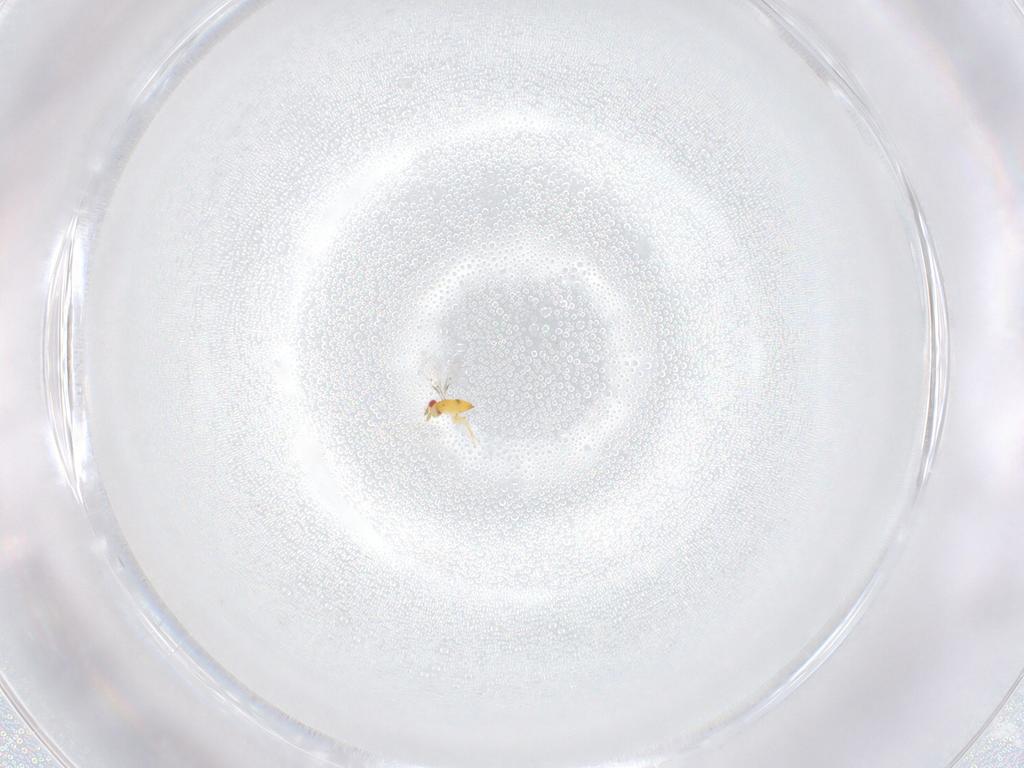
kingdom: Animalia
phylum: Arthropoda
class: Insecta
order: Hymenoptera
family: Trichogrammatidae
